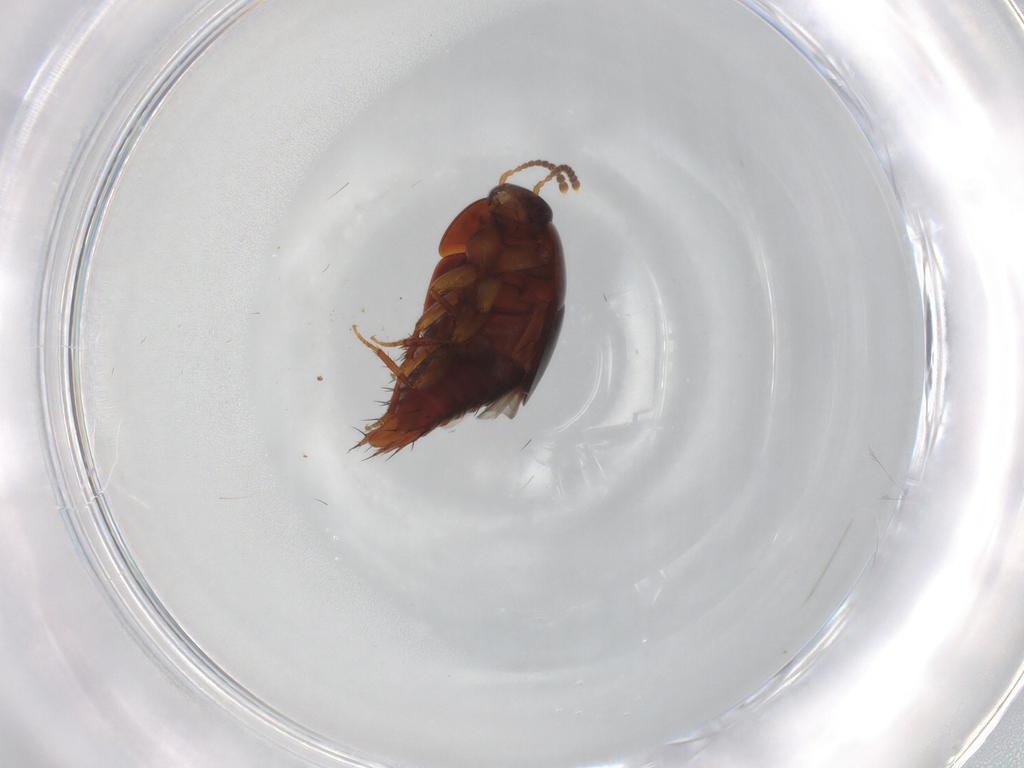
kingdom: Animalia
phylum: Arthropoda
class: Insecta
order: Coleoptera
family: Staphylinidae
